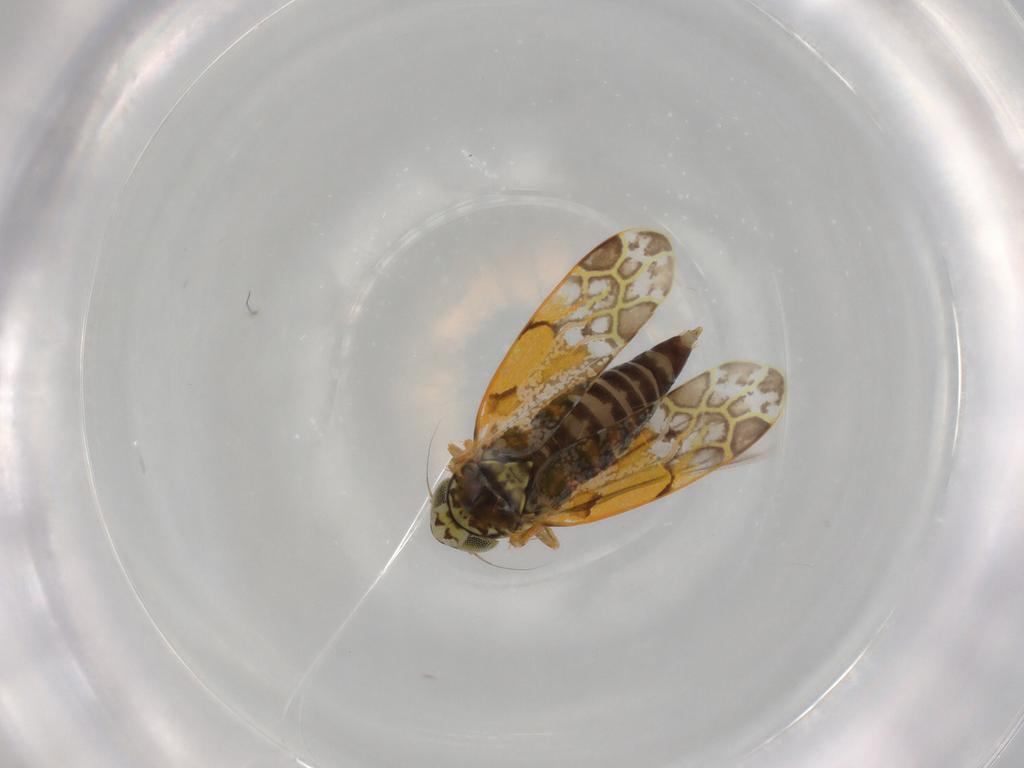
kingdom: Animalia
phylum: Arthropoda
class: Insecta
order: Hemiptera
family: Cicadellidae
